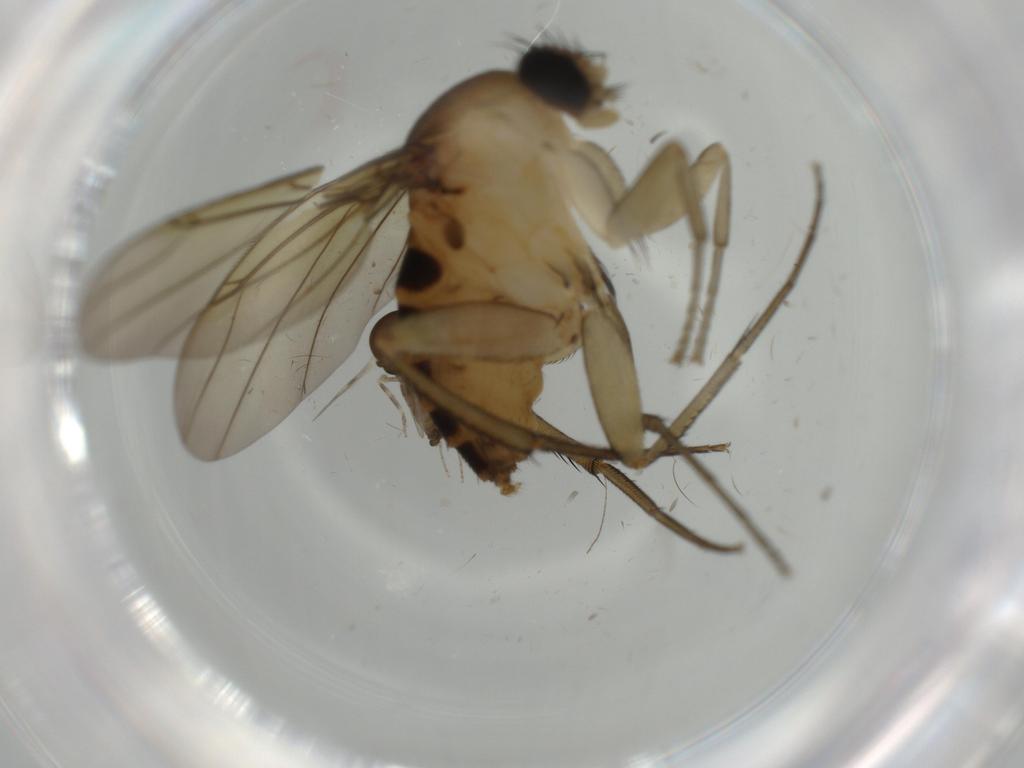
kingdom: Animalia
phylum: Arthropoda
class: Insecta
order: Diptera
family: Ceratopogonidae
